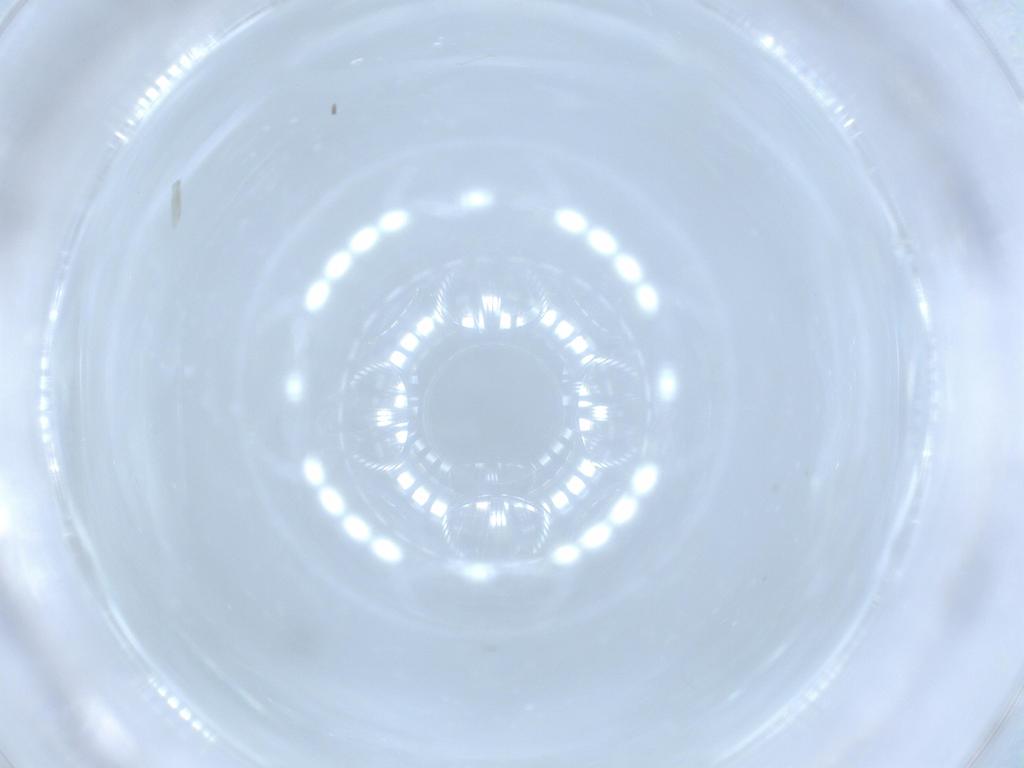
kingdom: Animalia
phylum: Arthropoda
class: Insecta
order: Diptera
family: Cecidomyiidae
